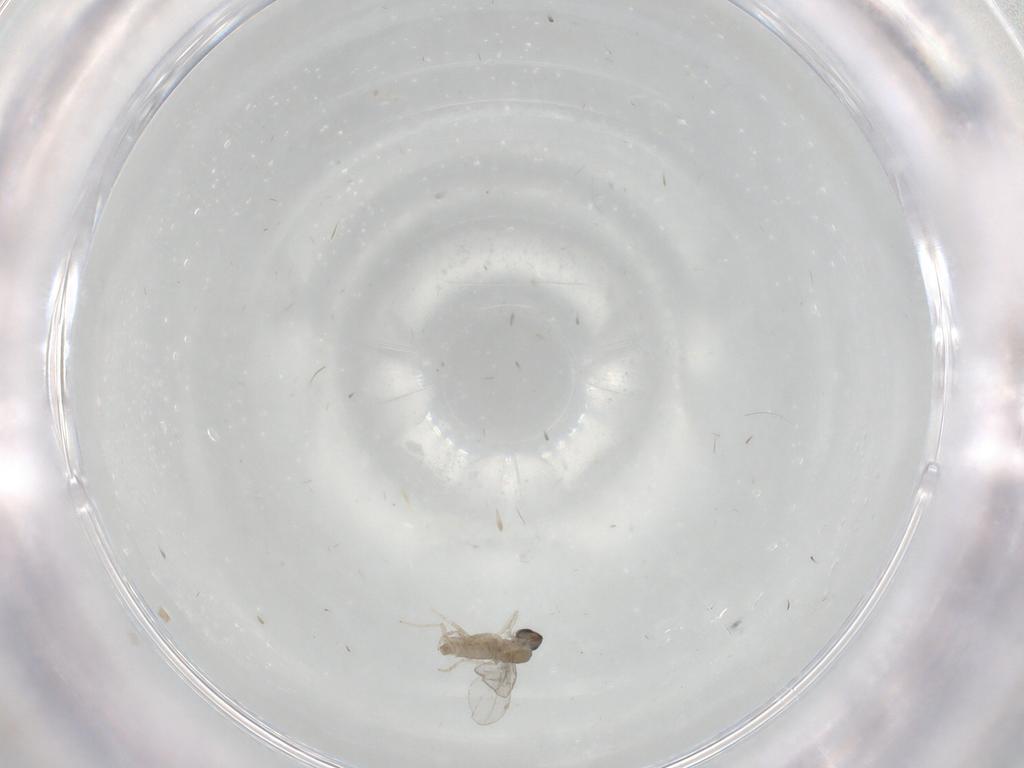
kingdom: Animalia
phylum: Arthropoda
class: Insecta
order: Diptera
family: Cecidomyiidae
